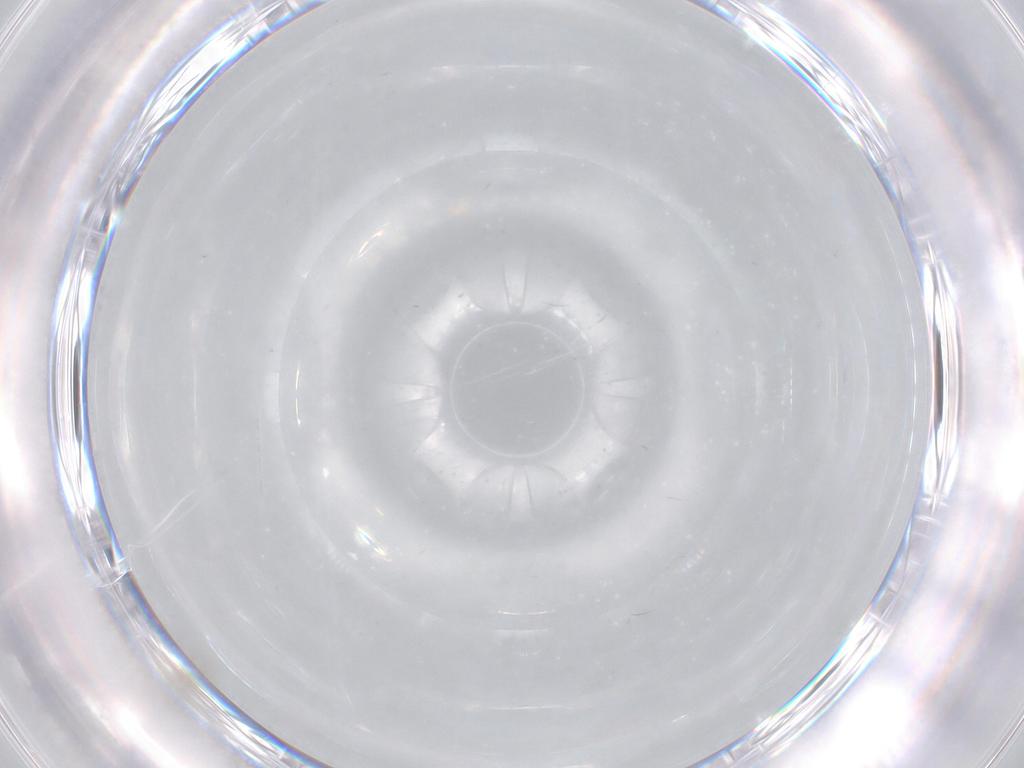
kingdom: Animalia
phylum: Arthropoda
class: Insecta
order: Diptera
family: Cecidomyiidae
